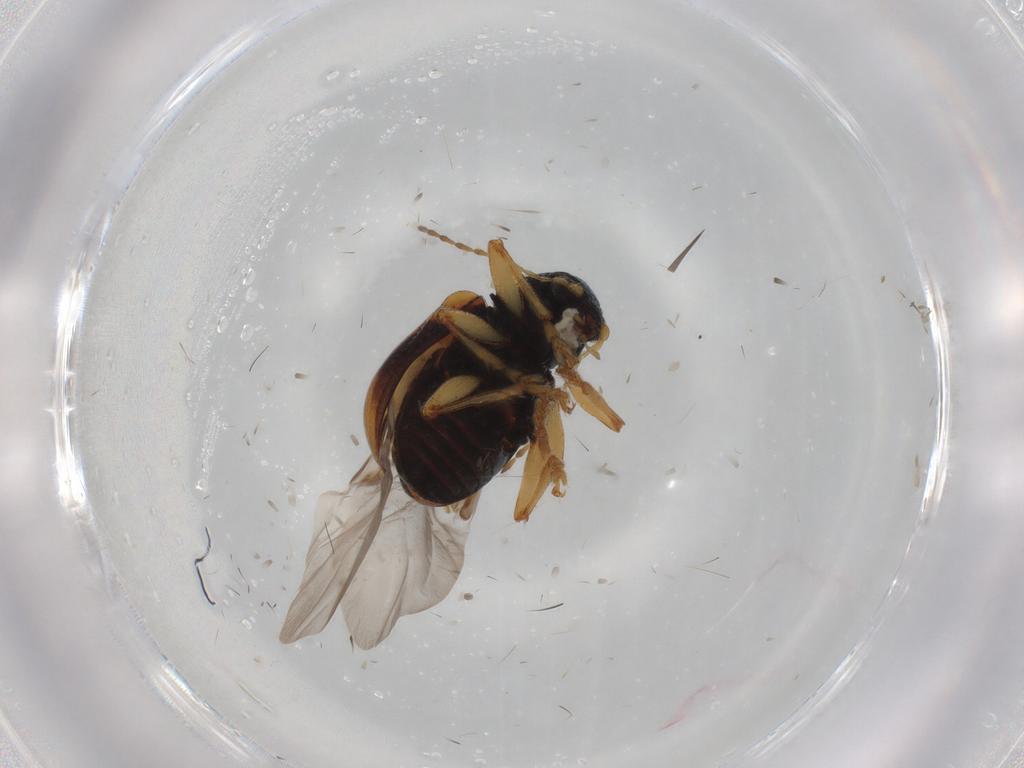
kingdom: Animalia
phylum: Arthropoda
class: Insecta
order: Coleoptera
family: Chrysomelidae
